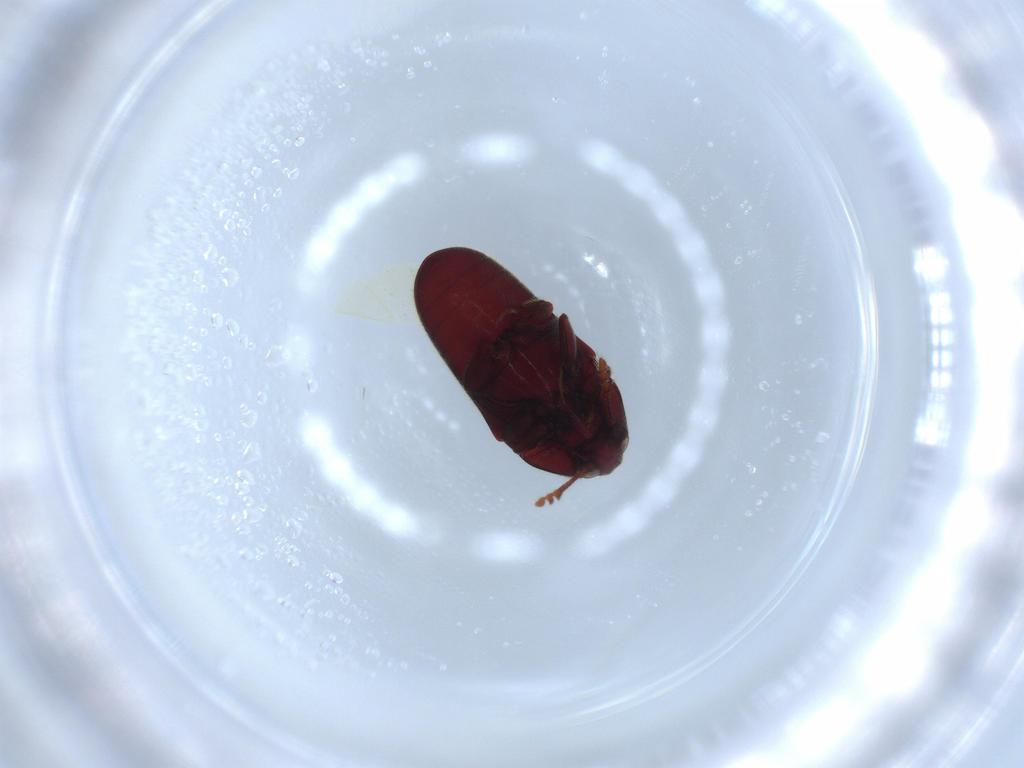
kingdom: Animalia
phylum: Arthropoda
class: Insecta
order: Coleoptera
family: Throscidae
